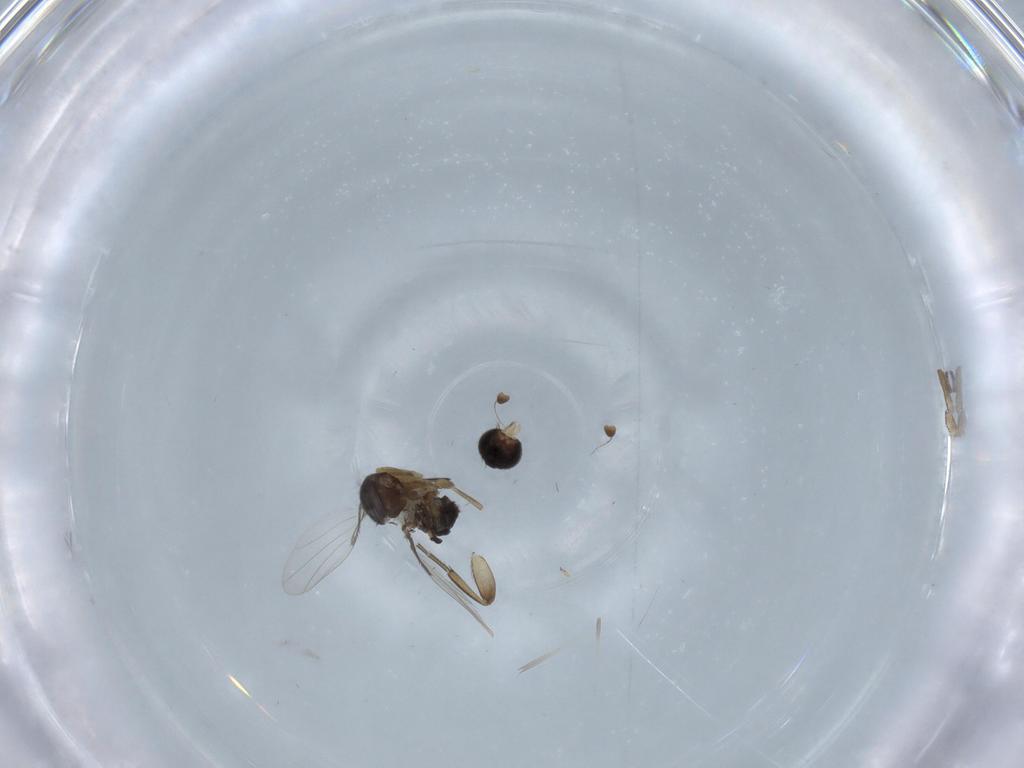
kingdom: Animalia
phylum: Arthropoda
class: Insecta
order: Diptera
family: Phoridae
